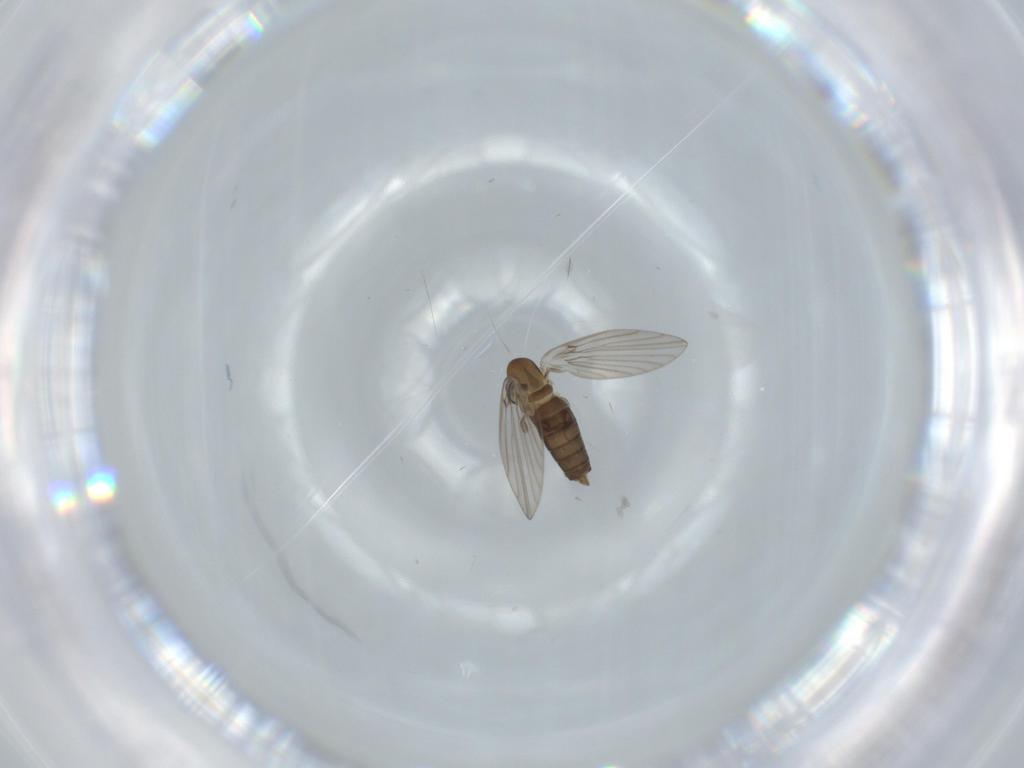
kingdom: Animalia
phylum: Arthropoda
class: Insecta
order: Diptera
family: Cecidomyiidae
